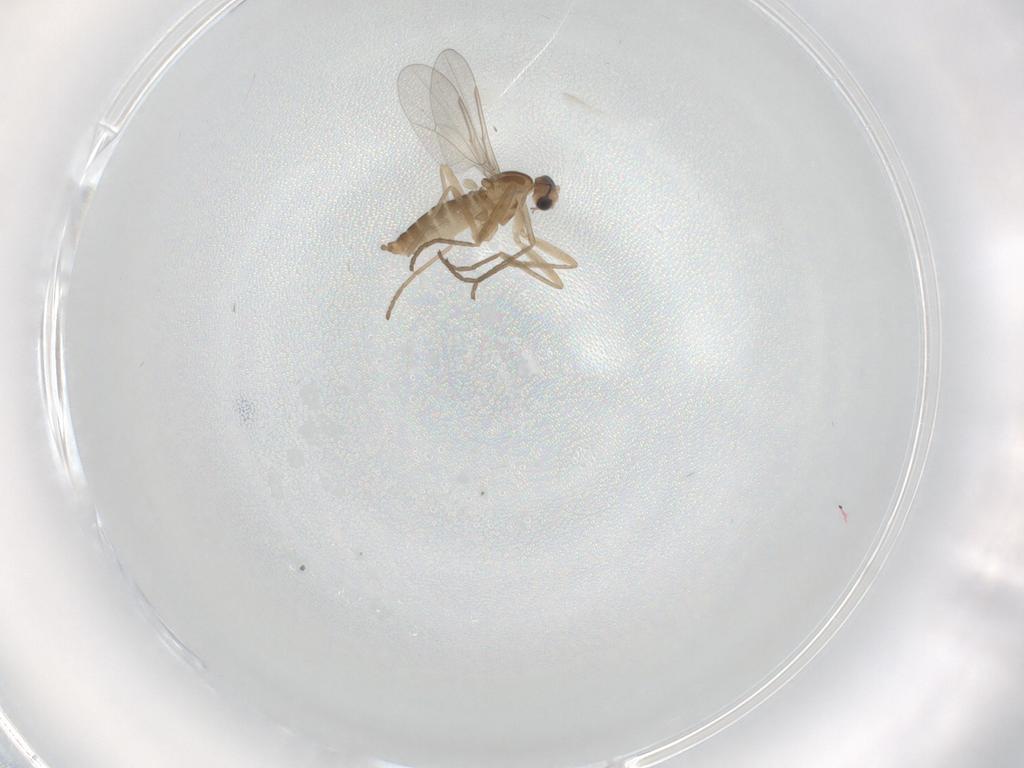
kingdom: Animalia
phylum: Arthropoda
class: Insecta
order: Diptera
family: Cecidomyiidae
